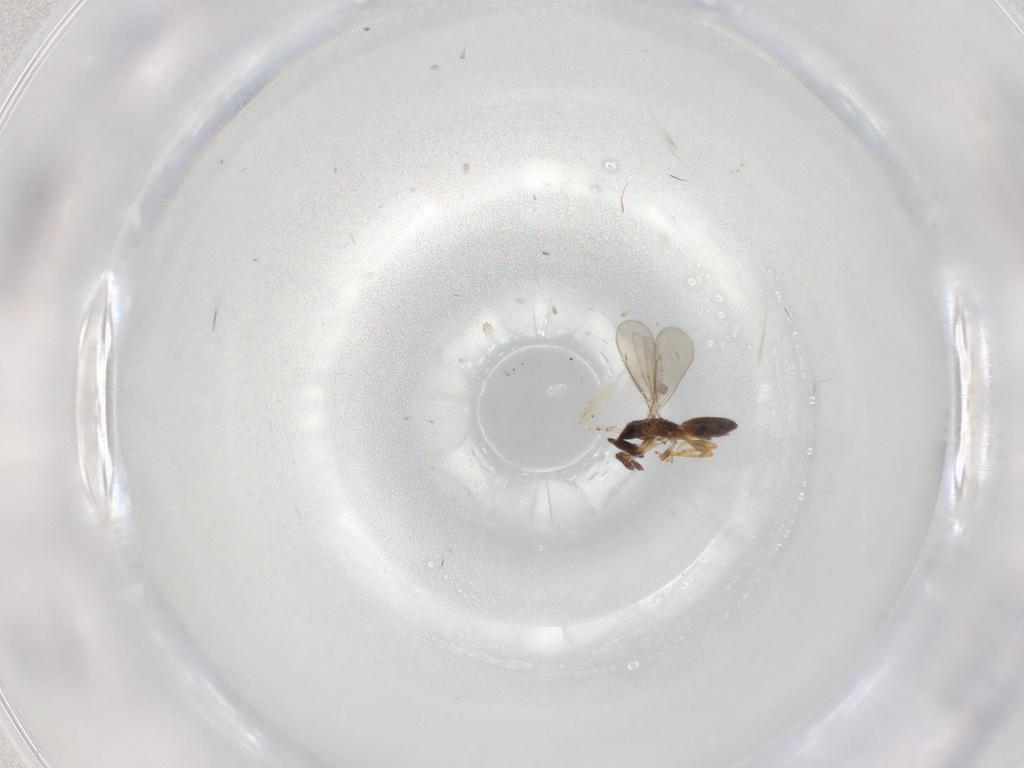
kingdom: Animalia
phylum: Arthropoda
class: Insecta
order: Hymenoptera
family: Eulophidae
